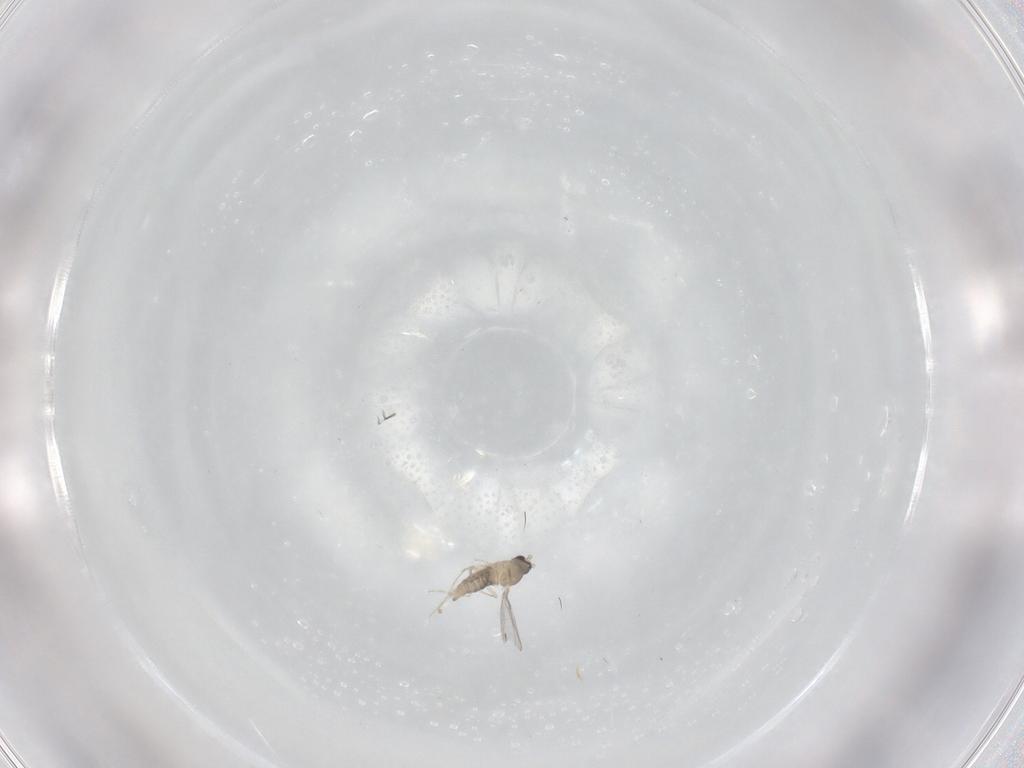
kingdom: Animalia
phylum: Arthropoda
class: Insecta
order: Diptera
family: Cecidomyiidae
